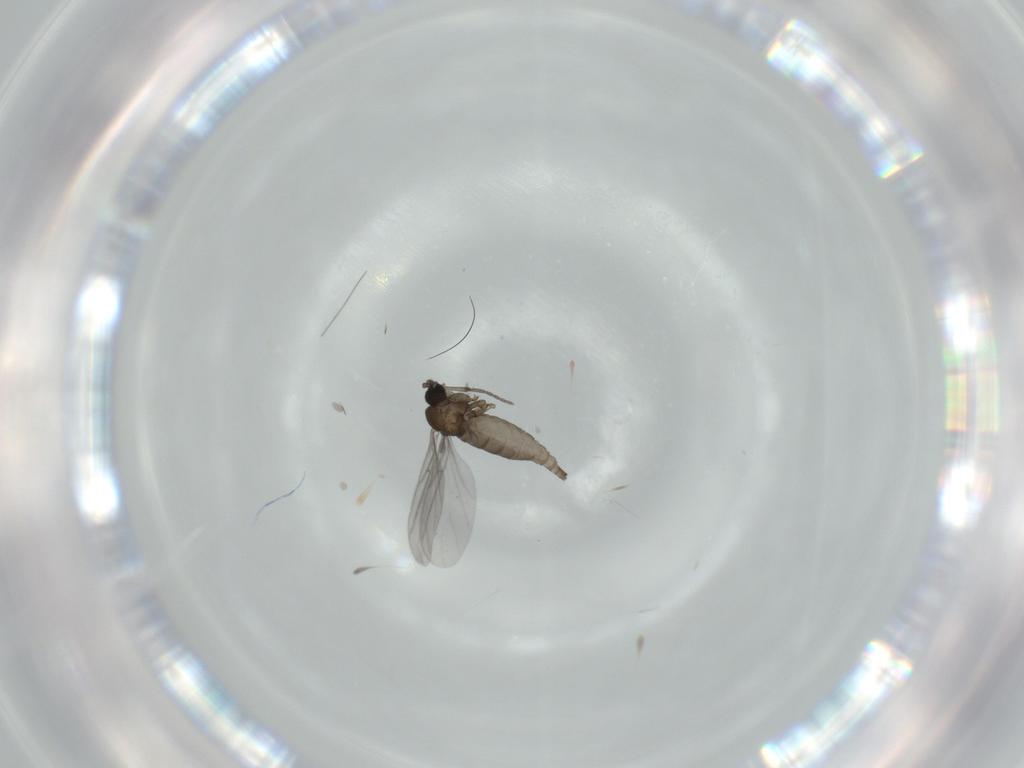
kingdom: Animalia
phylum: Arthropoda
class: Insecta
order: Diptera
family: Sciaridae
